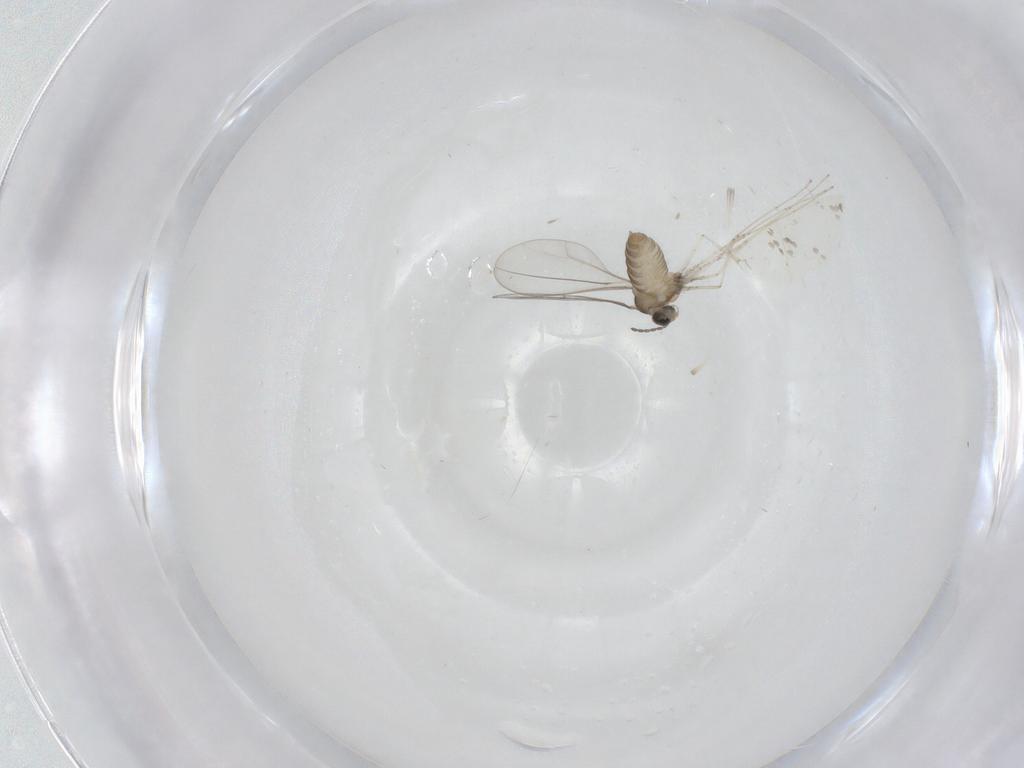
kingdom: Animalia
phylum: Arthropoda
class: Insecta
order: Diptera
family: Cecidomyiidae
